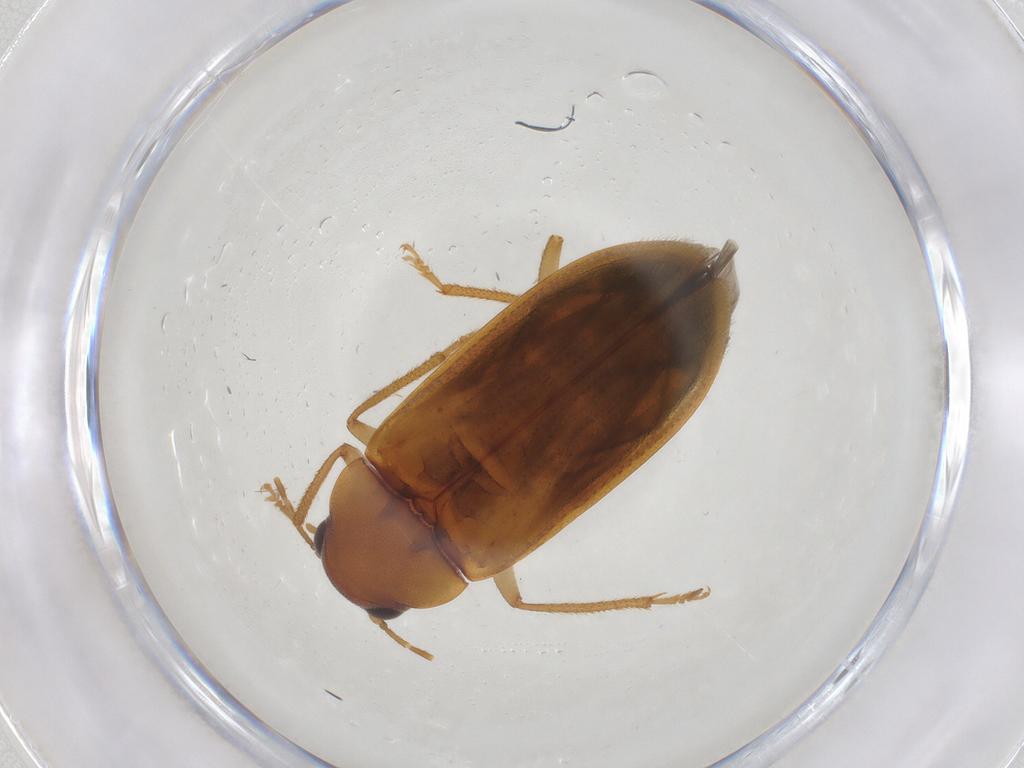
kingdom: Animalia
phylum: Arthropoda
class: Insecta
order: Coleoptera
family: Ptilodactylidae
